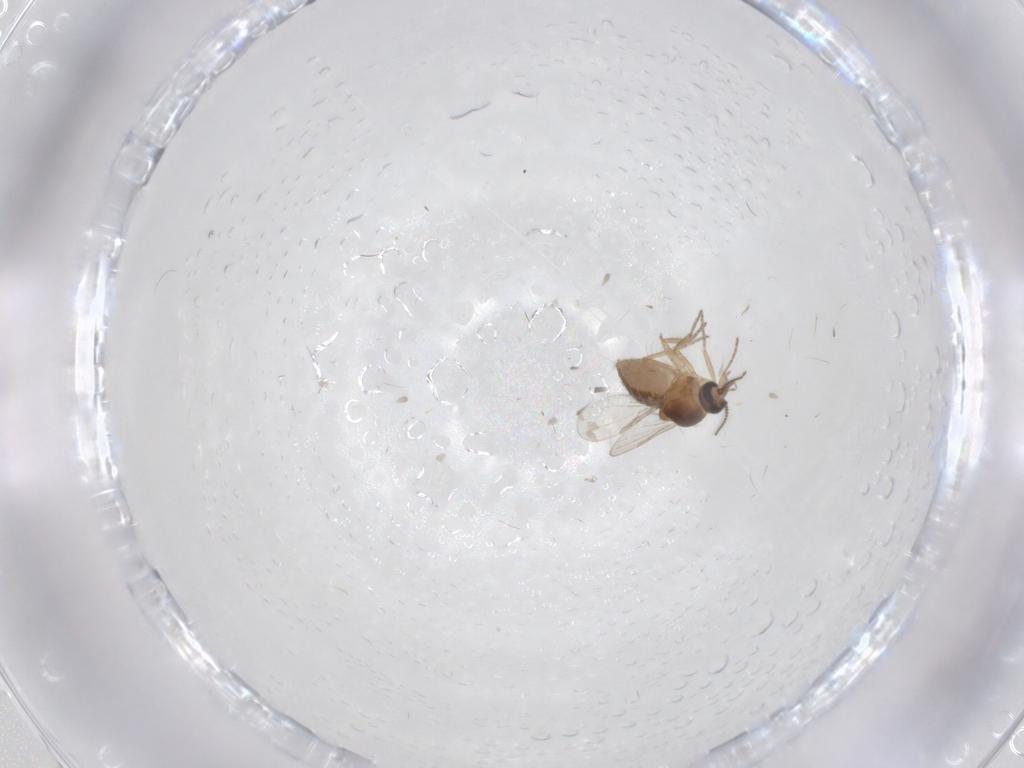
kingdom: Animalia
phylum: Arthropoda
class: Insecta
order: Diptera
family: Ceratopogonidae
